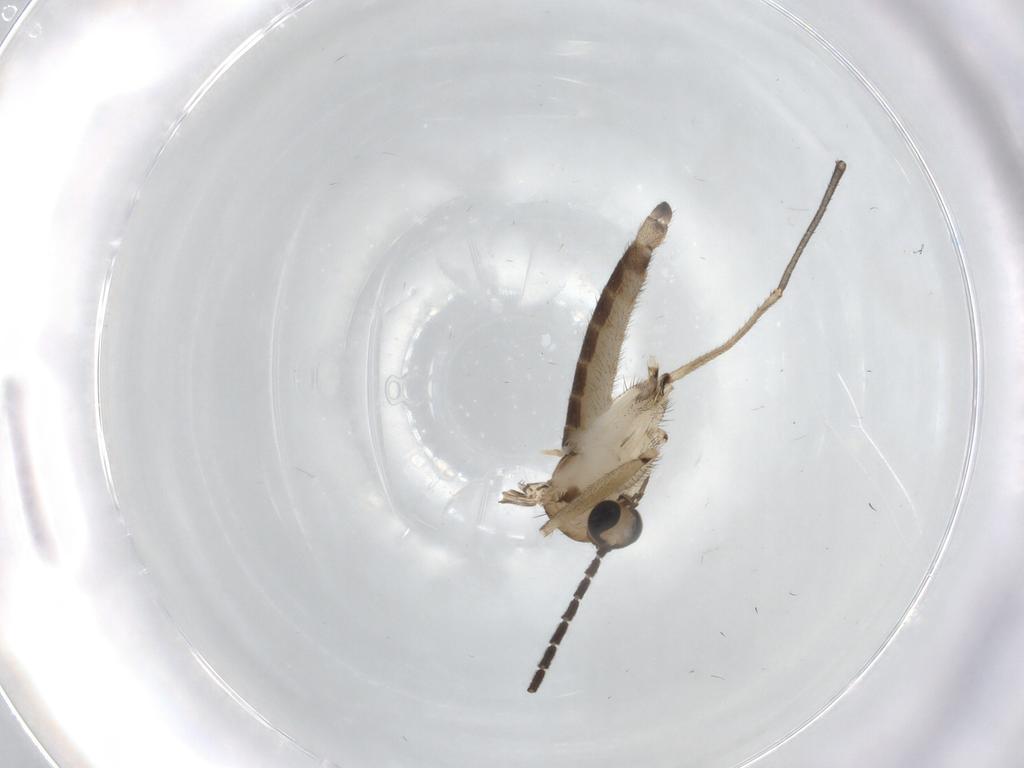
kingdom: Animalia
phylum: Arthropoda
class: Insecta
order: Diptera
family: Sciaridae
